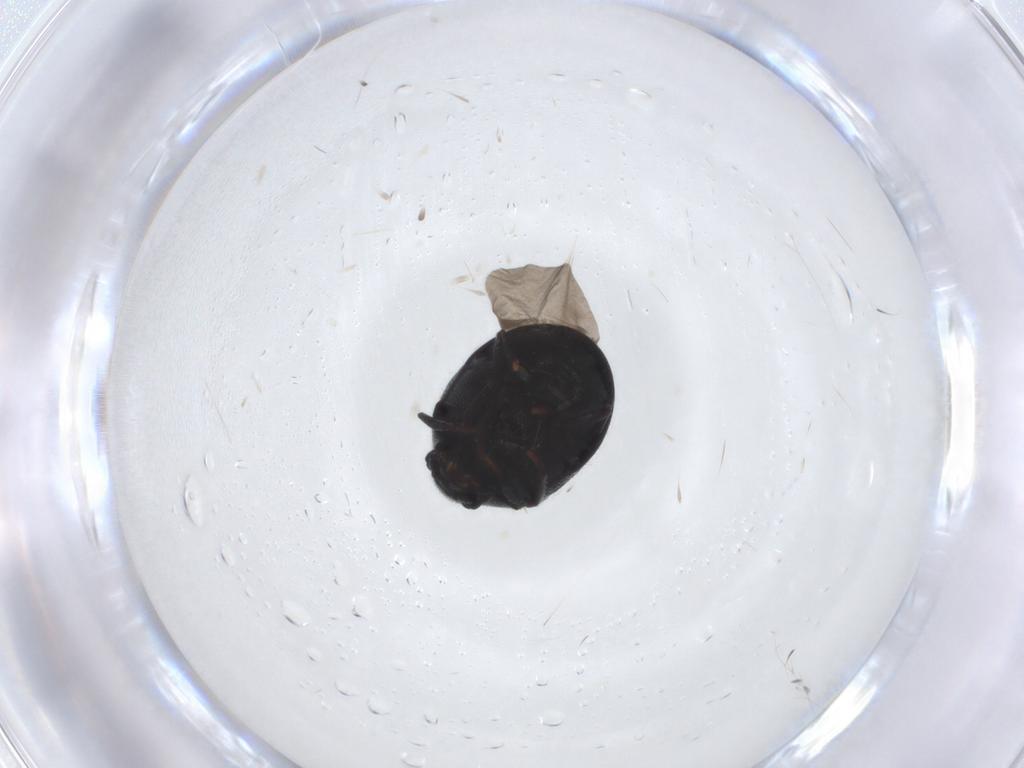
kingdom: Animalia
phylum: Arthropoda
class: Insecta
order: Coleoptera
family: Ptinidae
